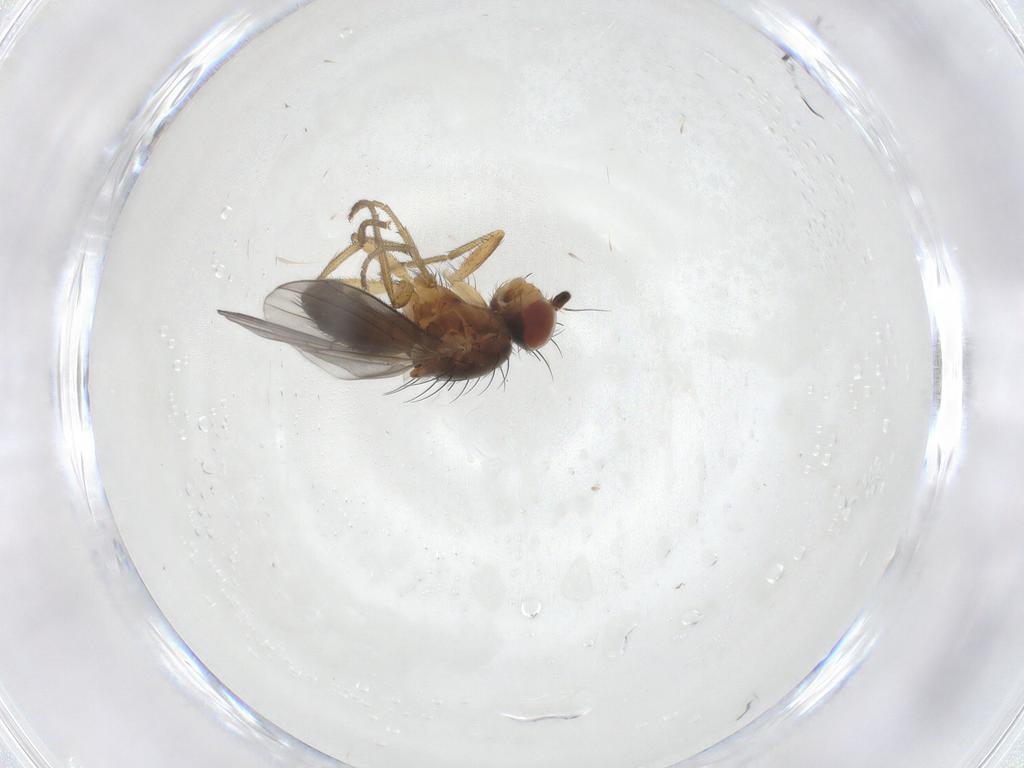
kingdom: Animalia
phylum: Arthropoda
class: Insecta
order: Diptera
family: Heleomyzidae
